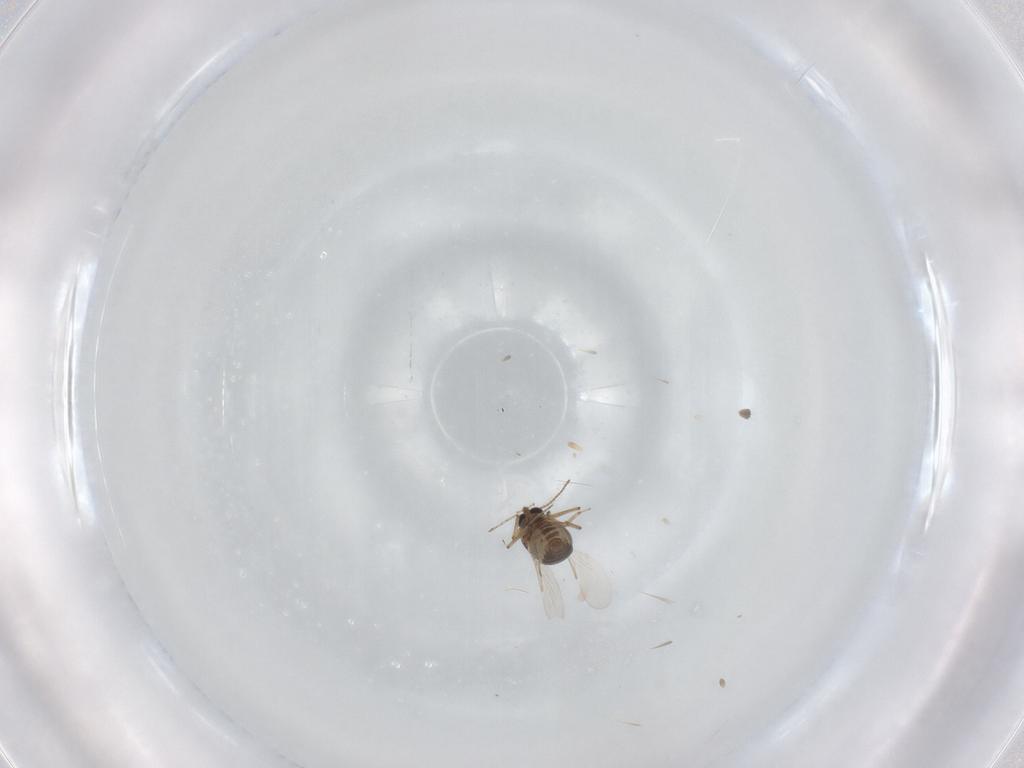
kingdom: Animalia
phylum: Arthropoda
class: Insecta
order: Diptera
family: Ceratopogonidae
